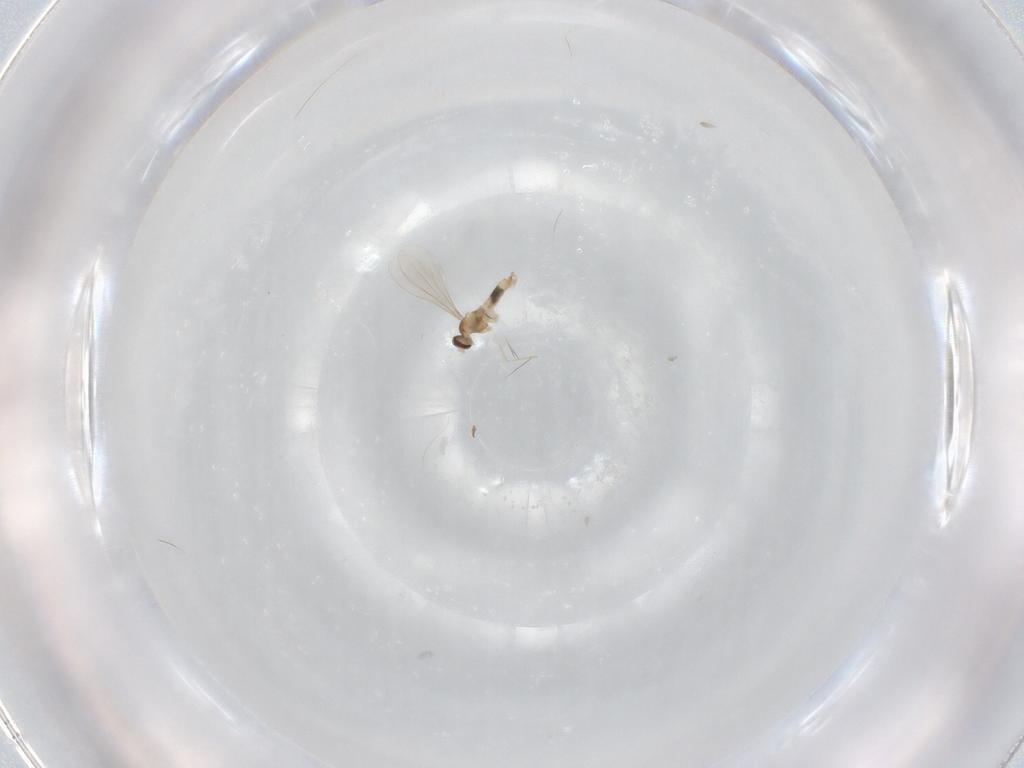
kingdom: Animalia
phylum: Arthropoda
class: Insecta
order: Diptera
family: Cecidomyiidae
